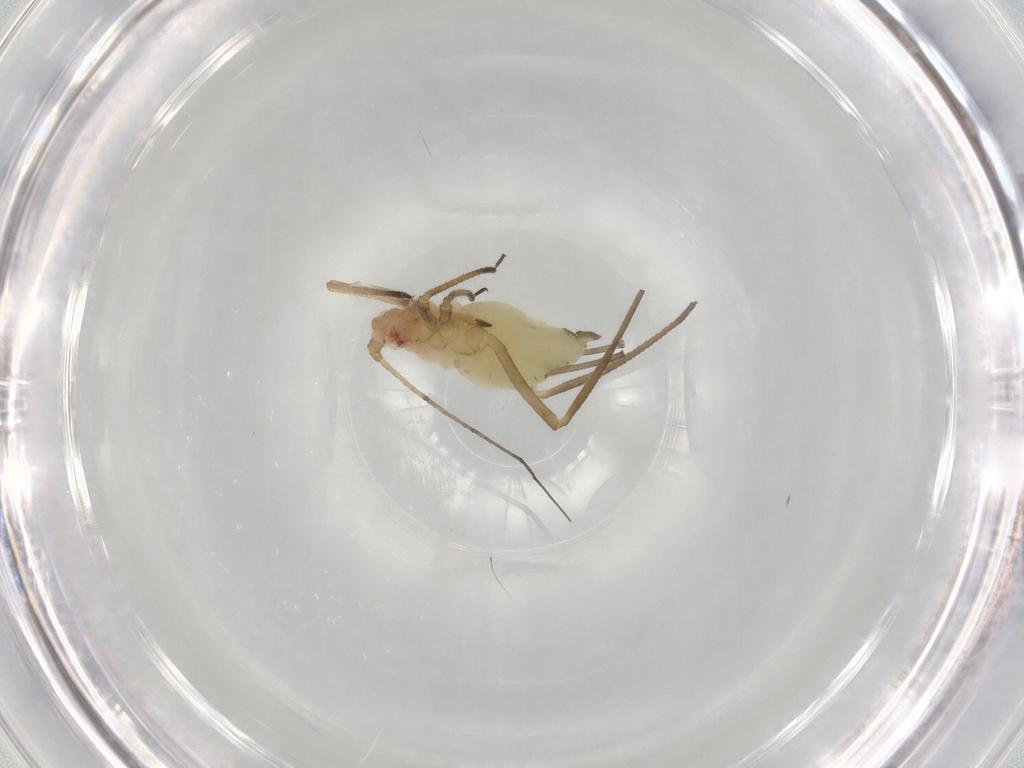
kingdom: Animalia
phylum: Arthropoda
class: Insecta
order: Hemiptera
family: Aphididae
